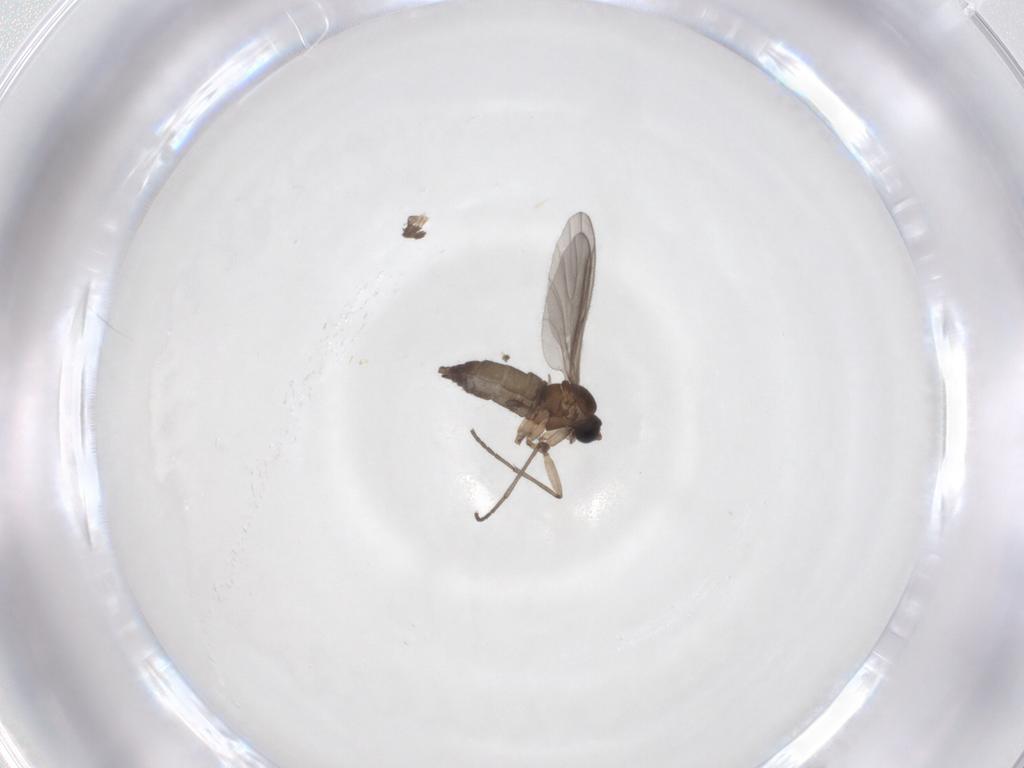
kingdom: Animalia
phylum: Arthropoda
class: Insecta
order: Diptera
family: Sciaridae
